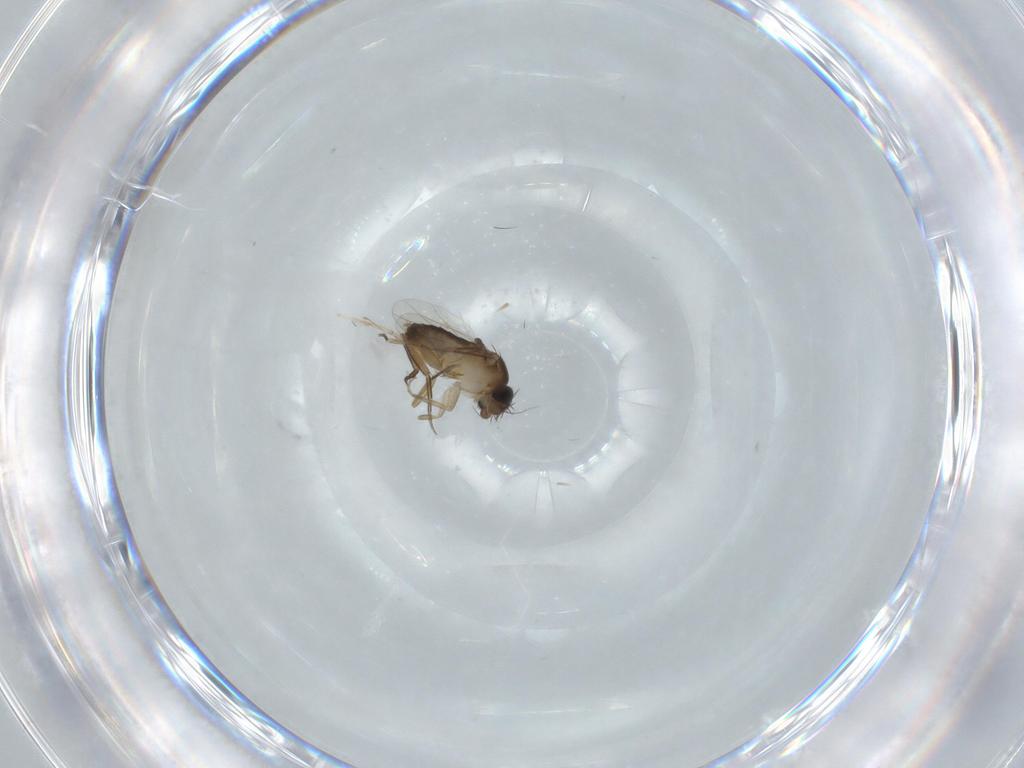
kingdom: Animalia
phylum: Arthropoda
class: Insecta
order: Diptera
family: Chironomidae
